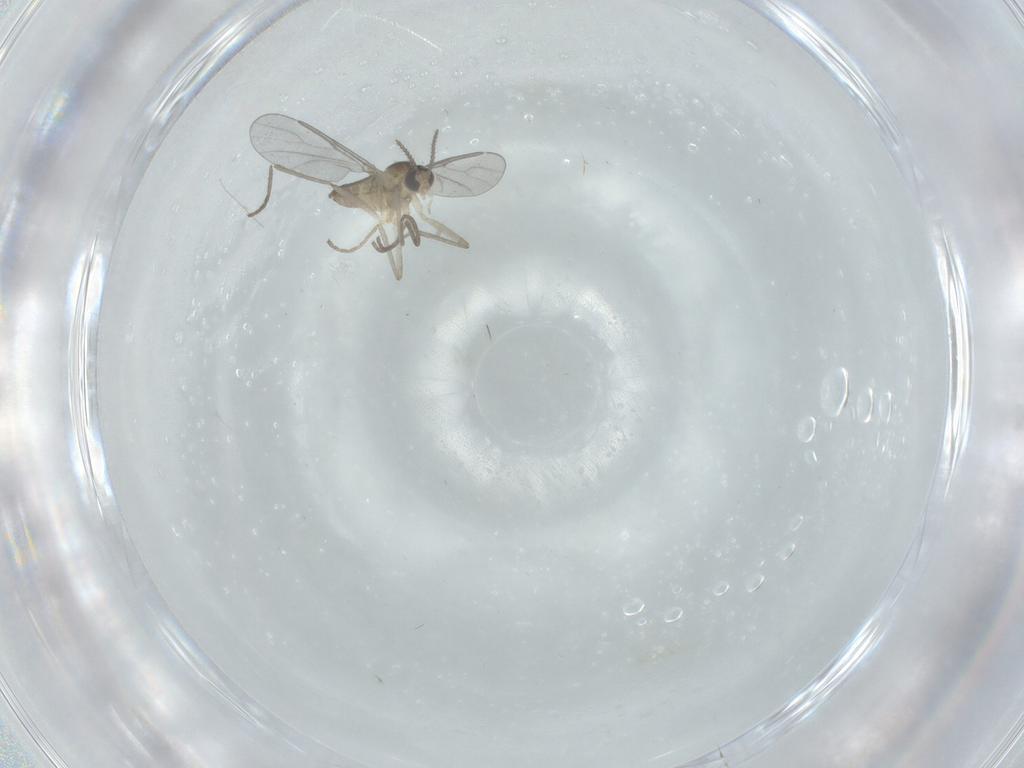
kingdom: Animalia
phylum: Arthropoda
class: Insecta
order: Diptera
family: Cecidomyiidae
